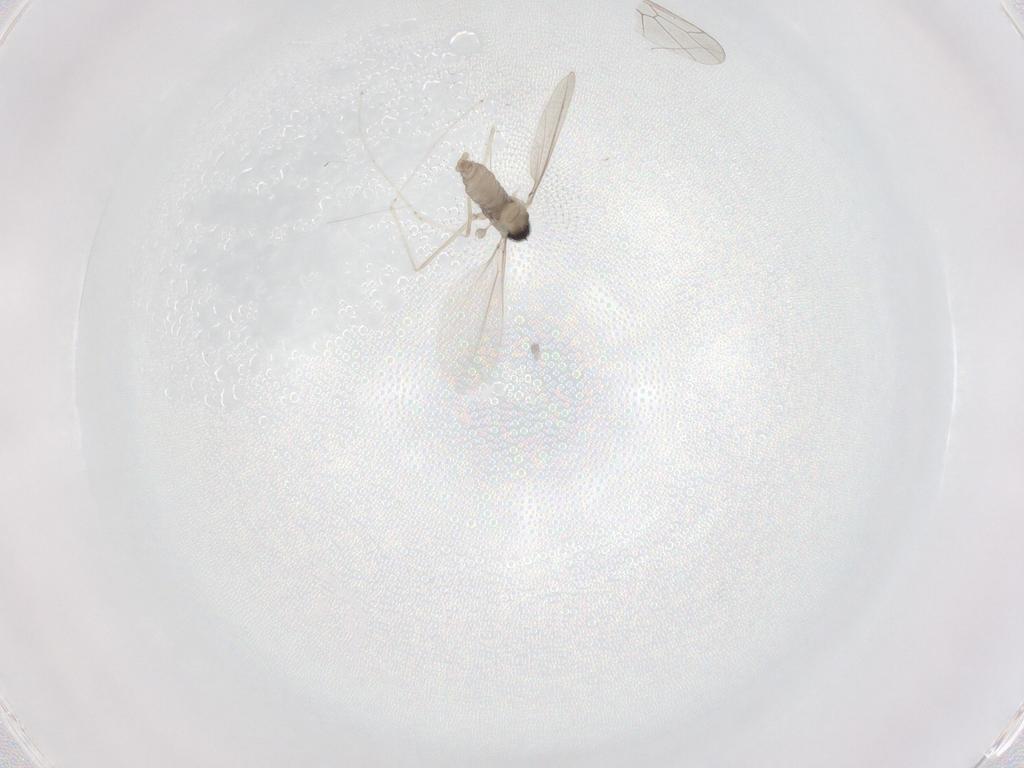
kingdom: Animalia
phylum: Arthropoda
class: Insecta
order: Diptera
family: Cecidomyiidae
